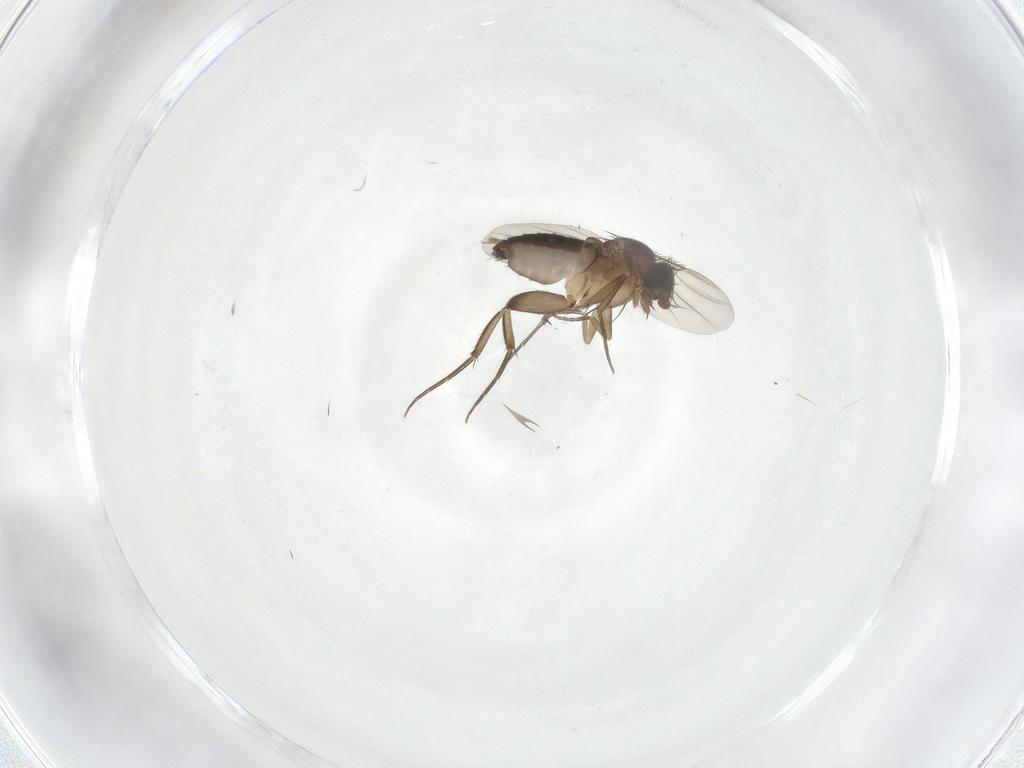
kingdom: Animalia
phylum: Arthropoda
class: Insecta
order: Diptera
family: Phoridae
